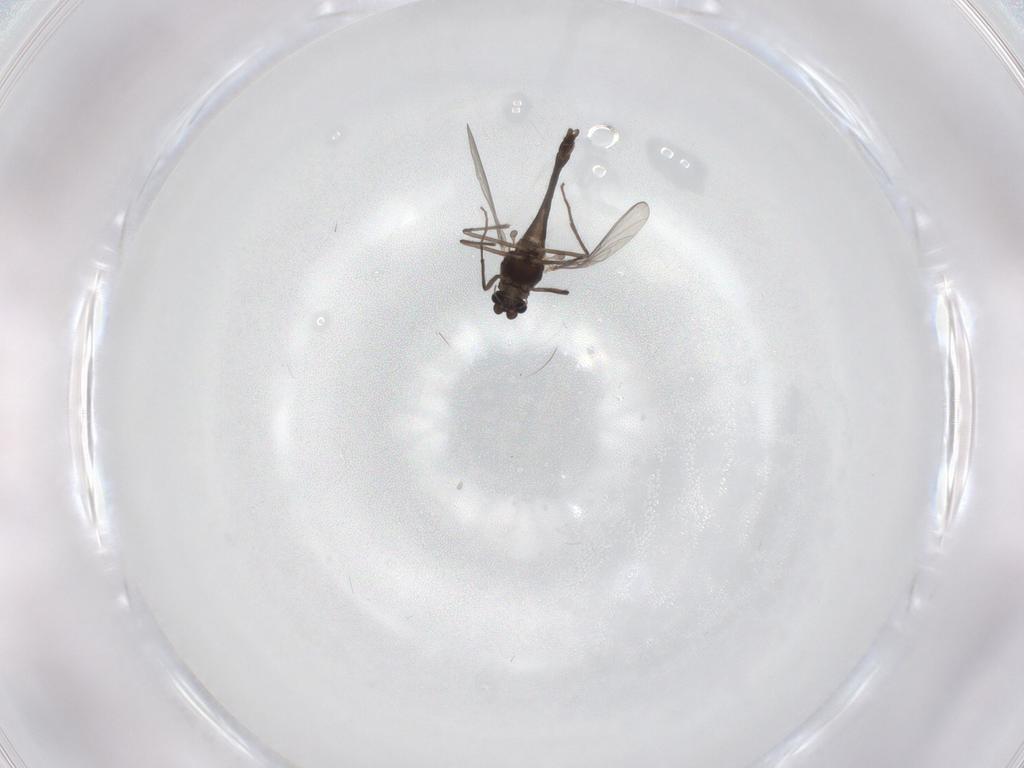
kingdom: Animalia
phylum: Arthropoda
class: Insecta
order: Diptera
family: Chironomidae
